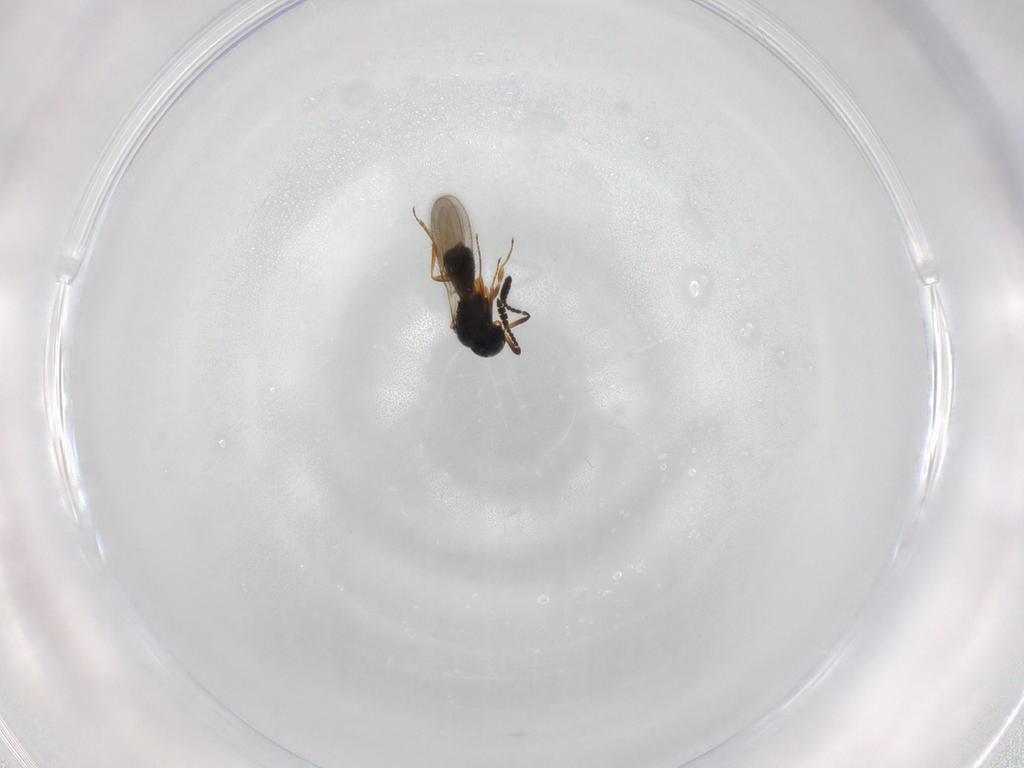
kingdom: Animalia
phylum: Arthropoda
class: Insecta
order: Hymenoptera
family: Scelionidae
